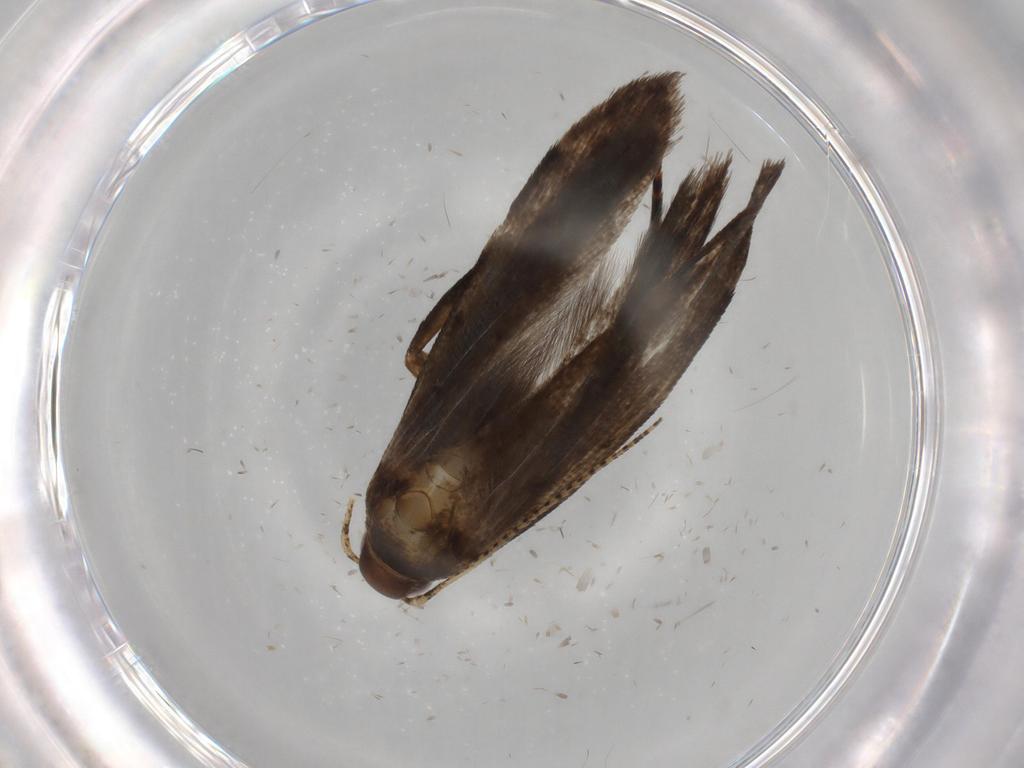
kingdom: Animalia
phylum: Arthropoda
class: Insecta
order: Lepidoptera
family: Gelechiidae
